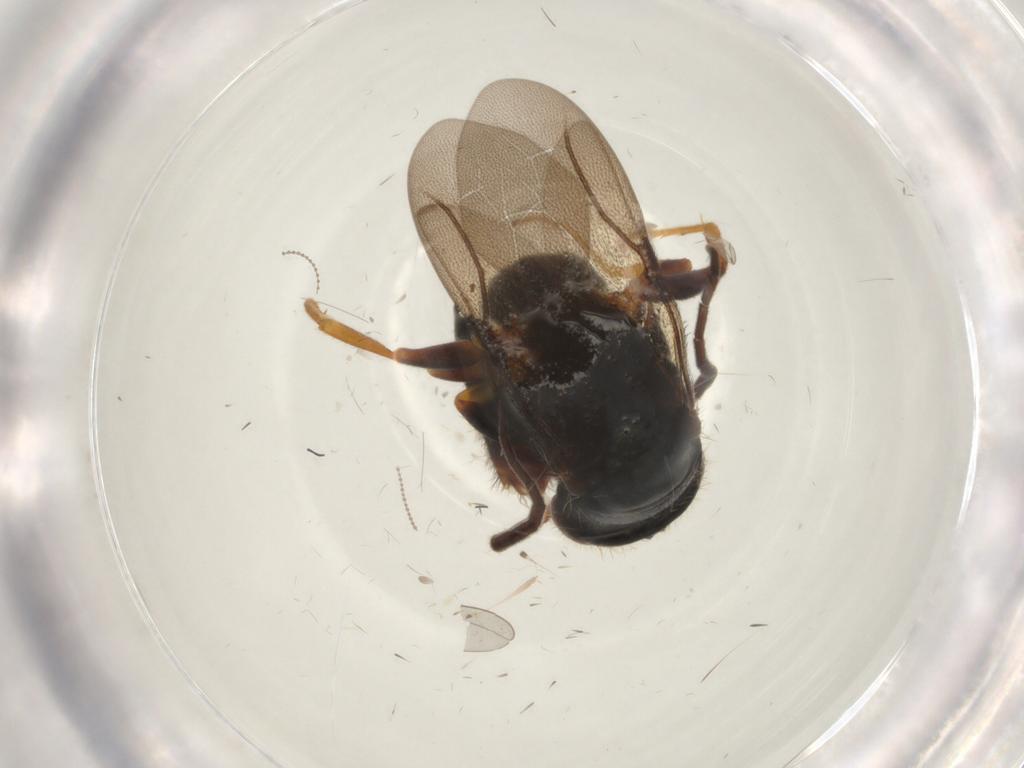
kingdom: Animalia
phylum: Arthropoda
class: Insecta
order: Hymenoptera
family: Bethylidae
